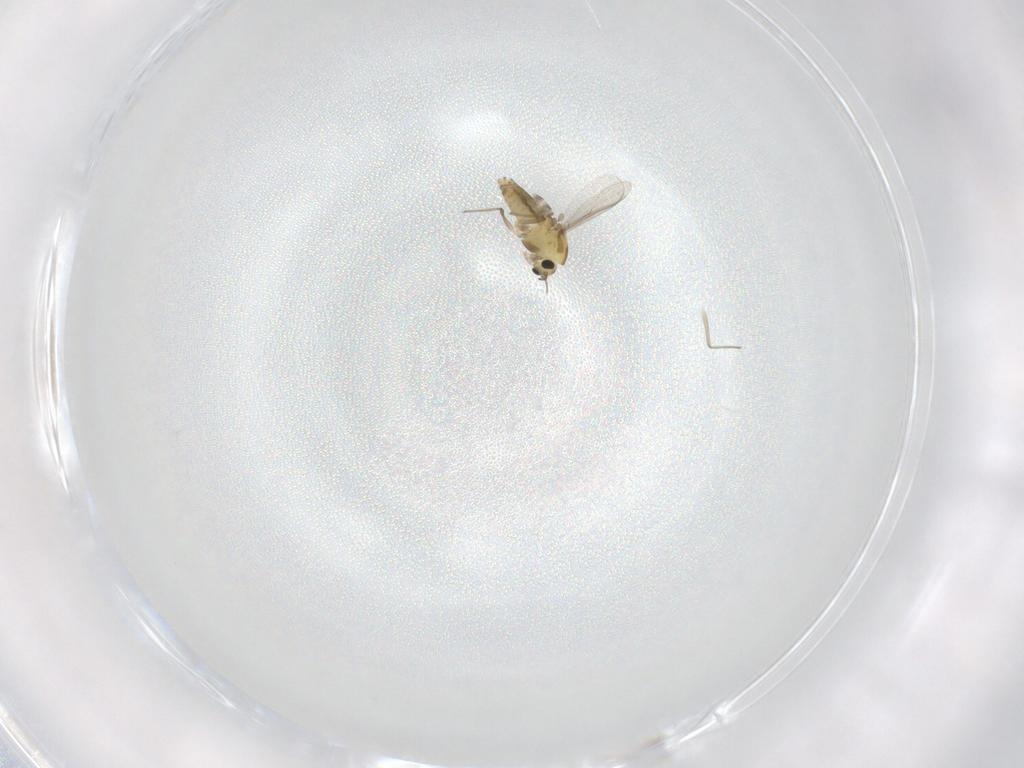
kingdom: Animalia
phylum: Arthropoda
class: Insecta
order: Diptera
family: Chironomidae
